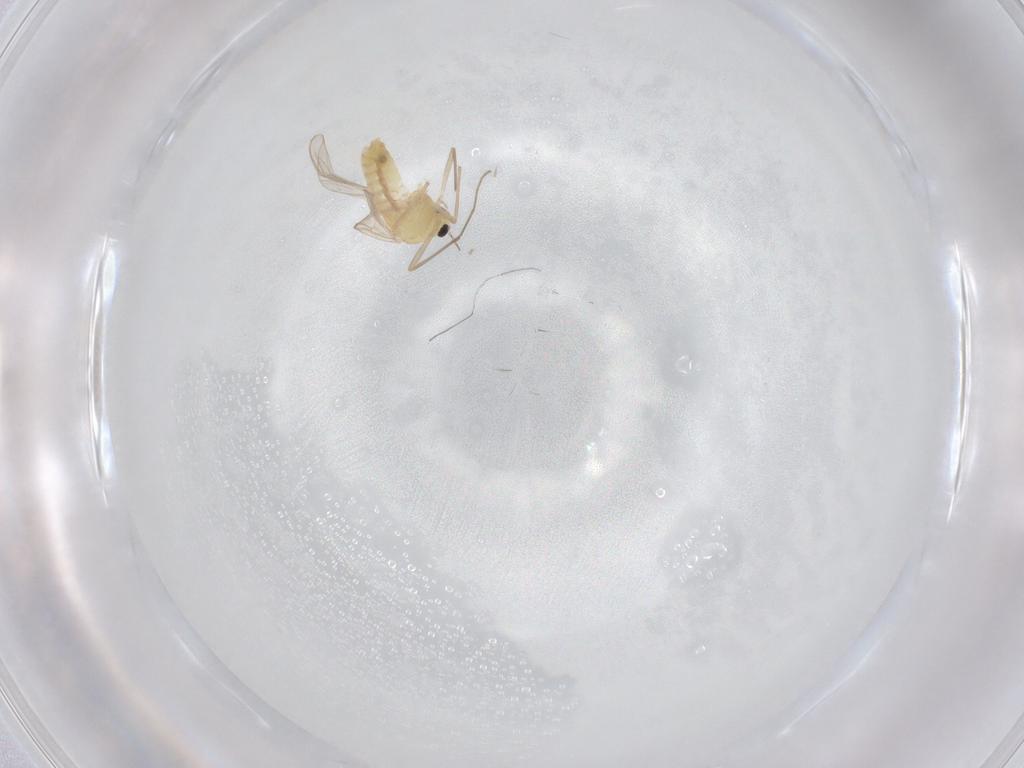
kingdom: Animalia
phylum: Arthropoda
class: Insecta
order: Diptera
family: Chironomidae
